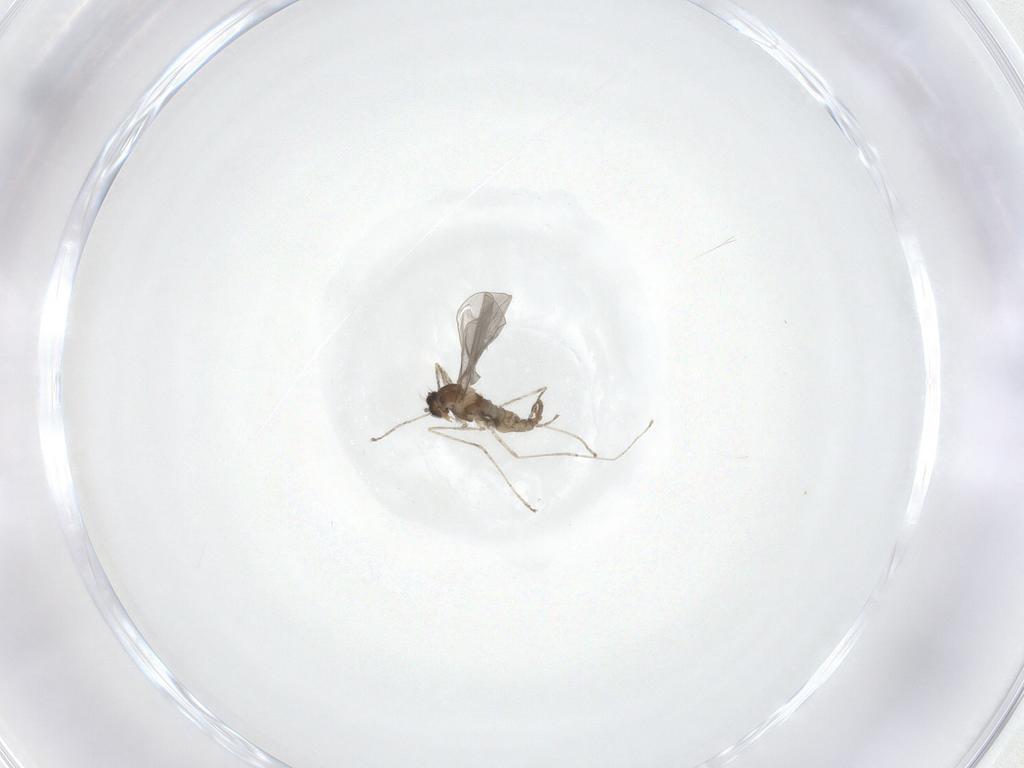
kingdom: Animalia
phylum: Arthropoda
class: Insecta
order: Diptera
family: Cecidomyiidae
